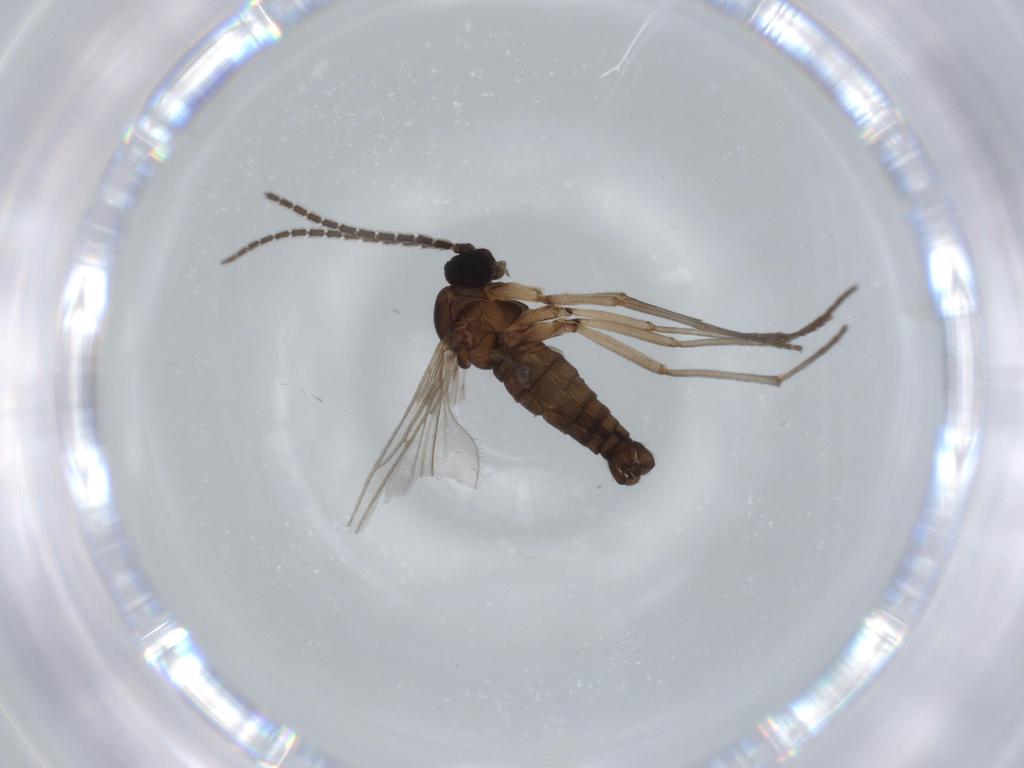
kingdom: Animalia
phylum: Arthropoda
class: Insecta
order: Diptera
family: Sciaridae
